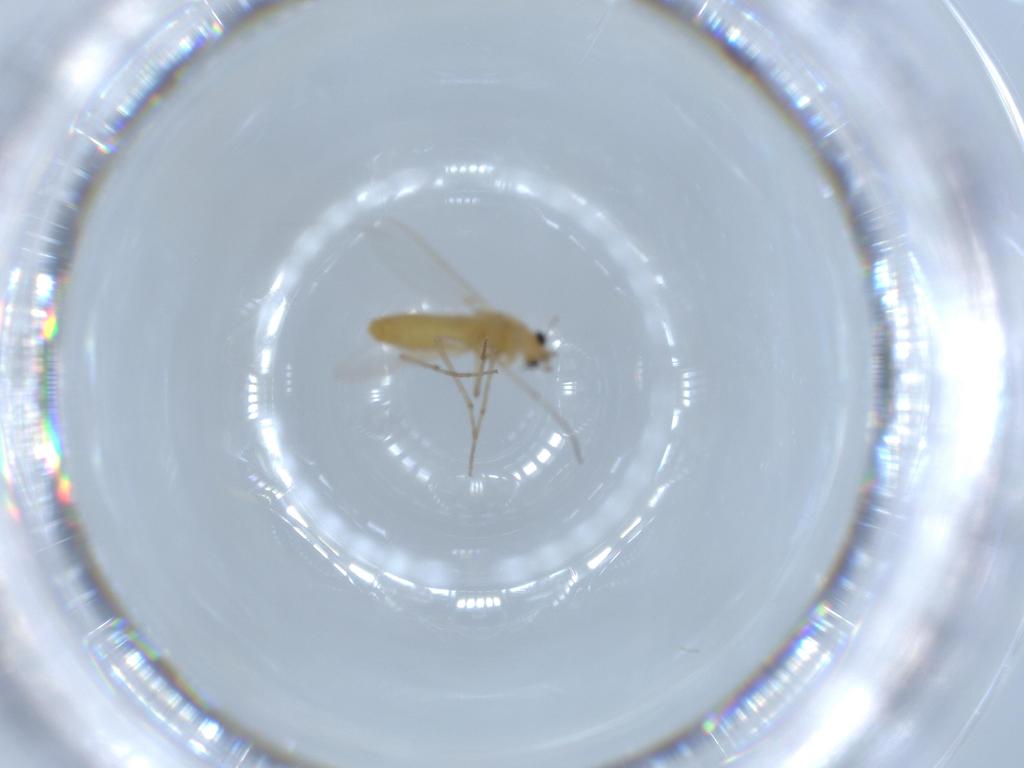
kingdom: Animalia
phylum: Arthropoda
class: Insecta
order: Diptera
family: Chironomidae
